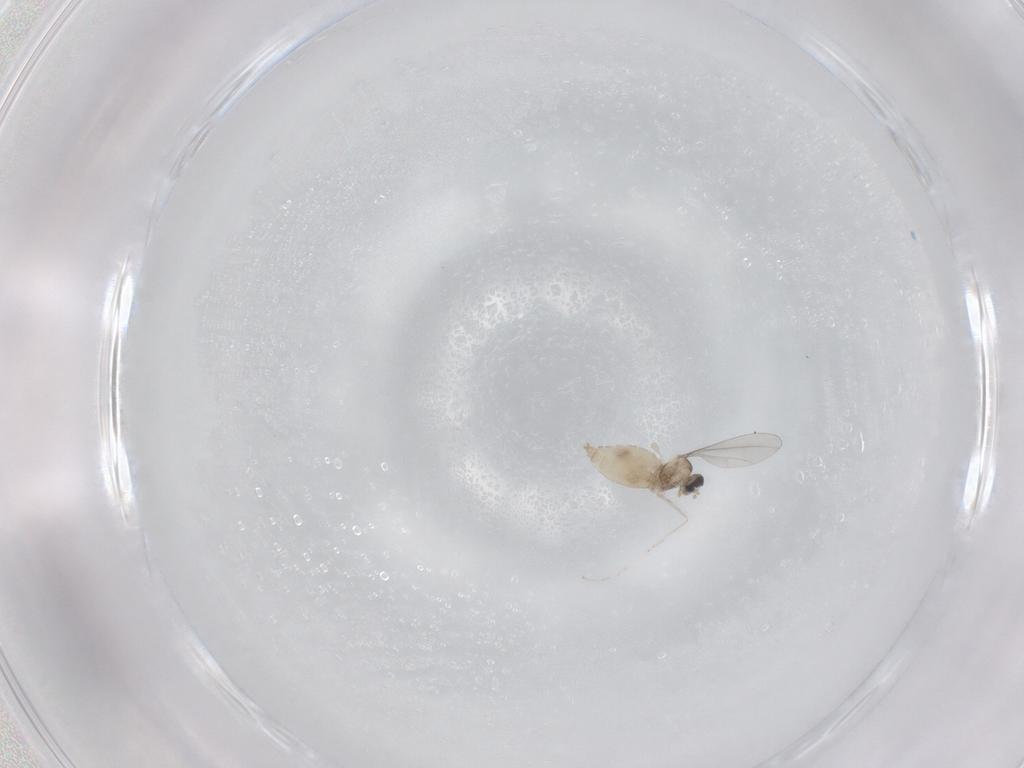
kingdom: Animalia
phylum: Arthropoda
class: Insecta
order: Diptera
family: Cecidomyiidae
